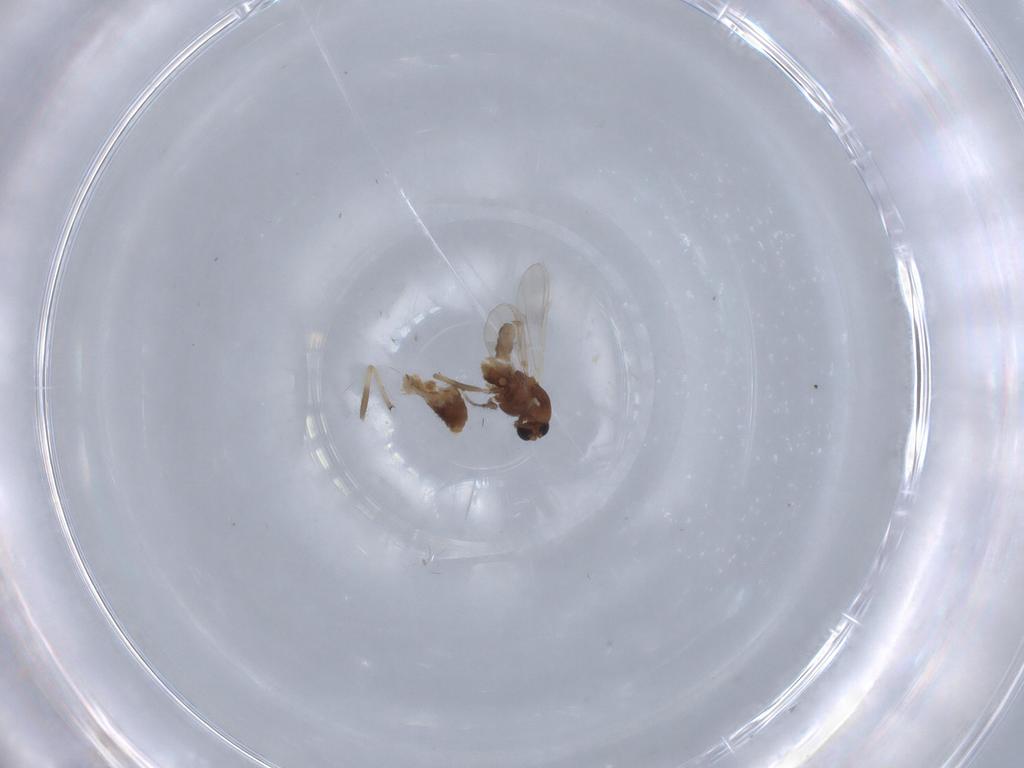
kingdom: Animalia
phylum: Arthropoda
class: Insecta
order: Diptera
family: Chironomidae
